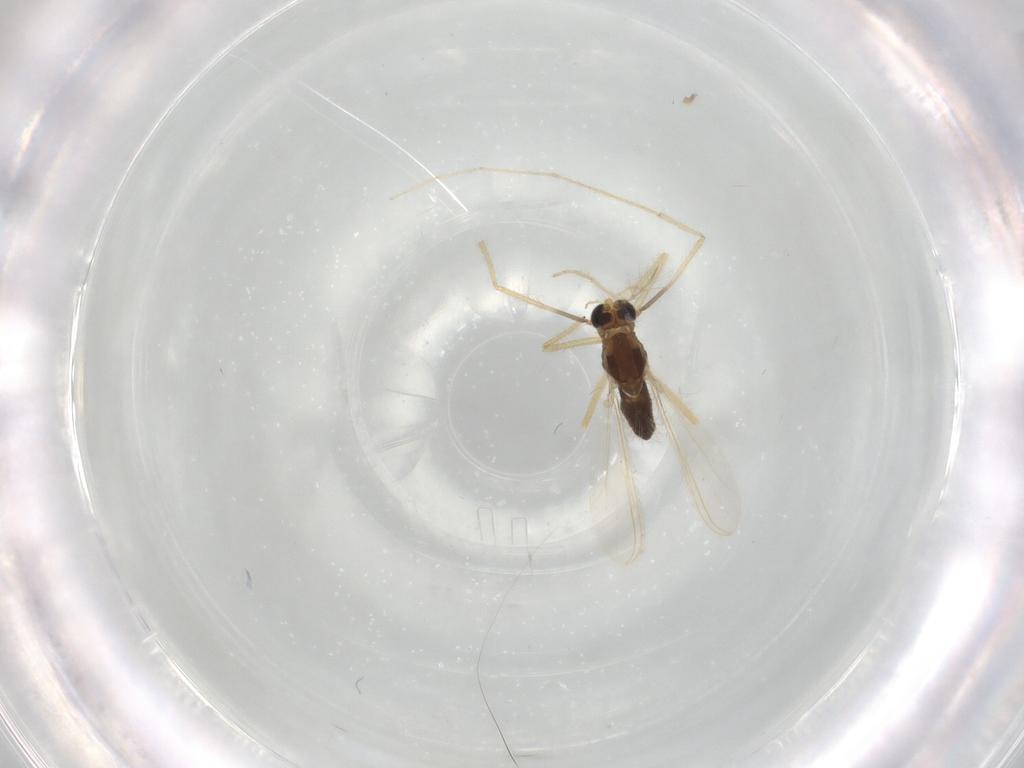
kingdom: Animalia
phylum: Arthropoda
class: Insecta
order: Diptera
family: Chironomidae
